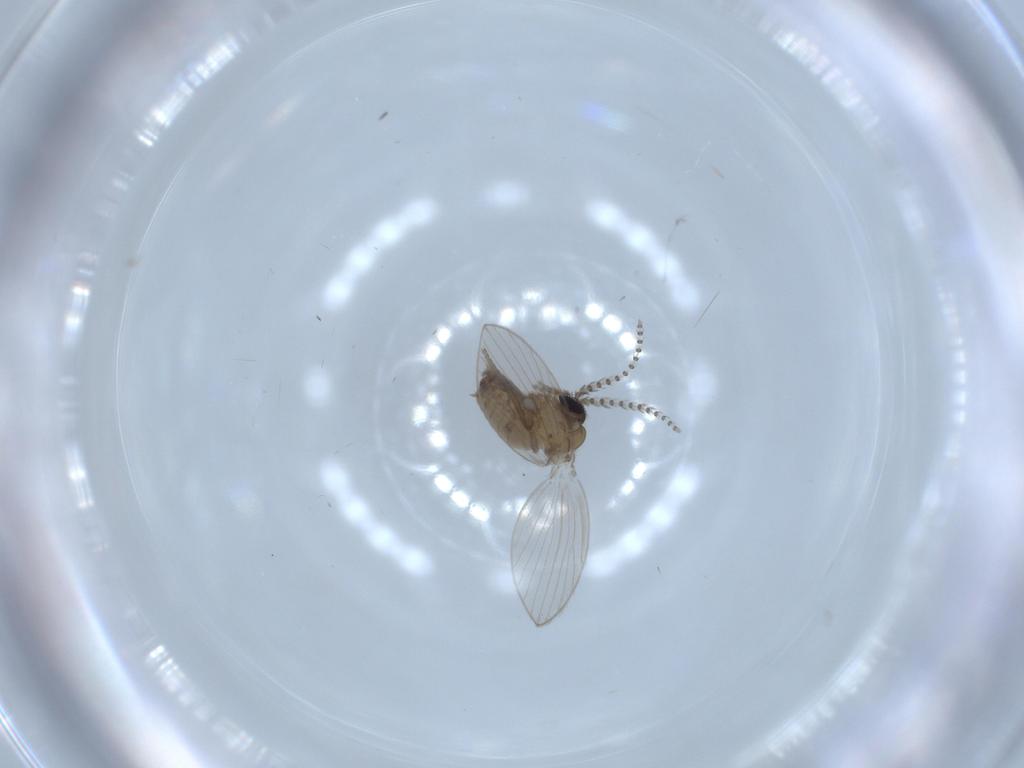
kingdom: Animalia
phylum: Arthropoda
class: Insecta
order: Diptera
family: Psychodidae
